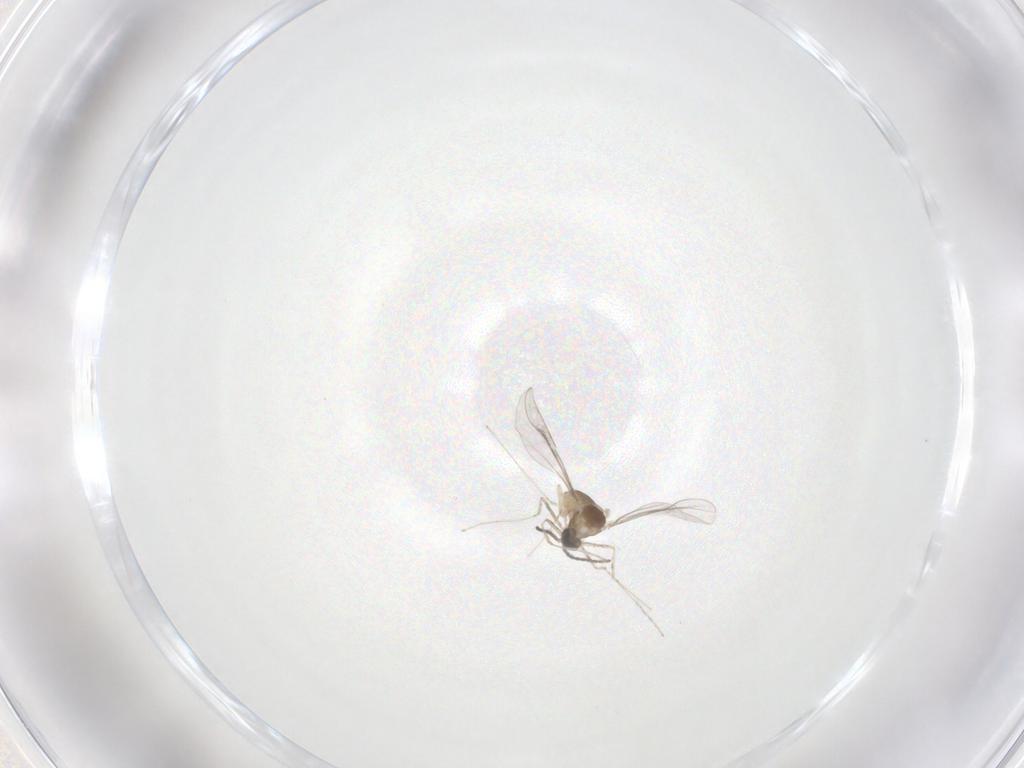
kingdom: Animalia
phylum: Arthropoda
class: Insecta
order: Diptera
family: Cecidomyiidae
